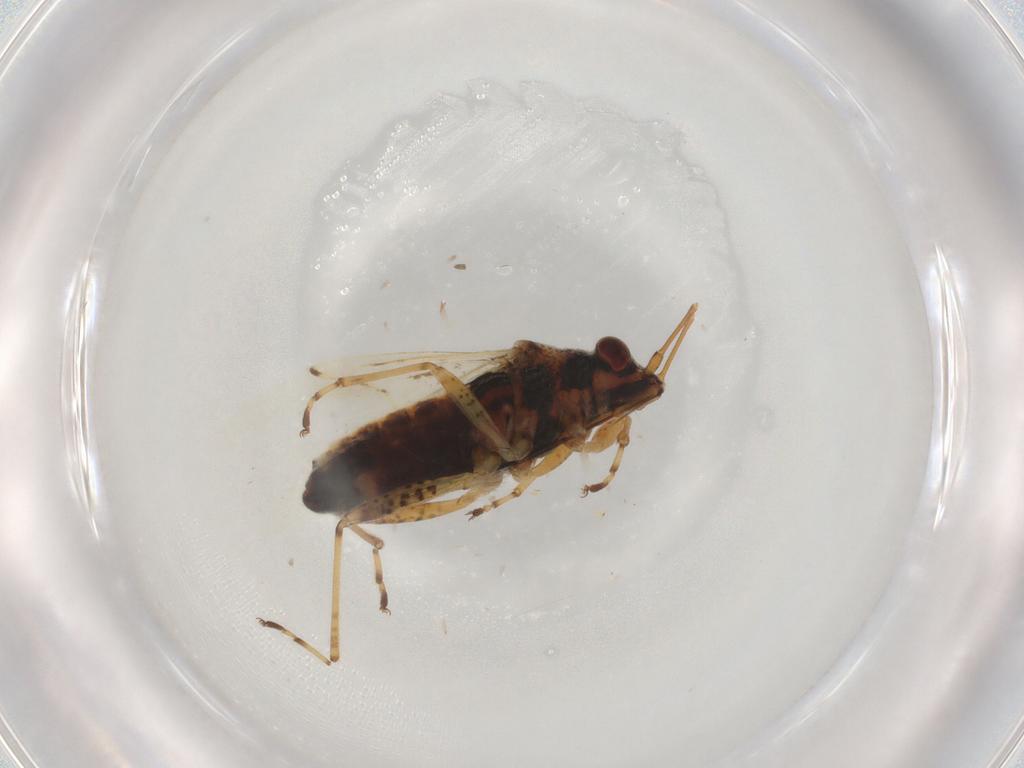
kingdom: Animalia
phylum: Arthropoda
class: Insecta
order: Hemiptera
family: Lygaeidae
